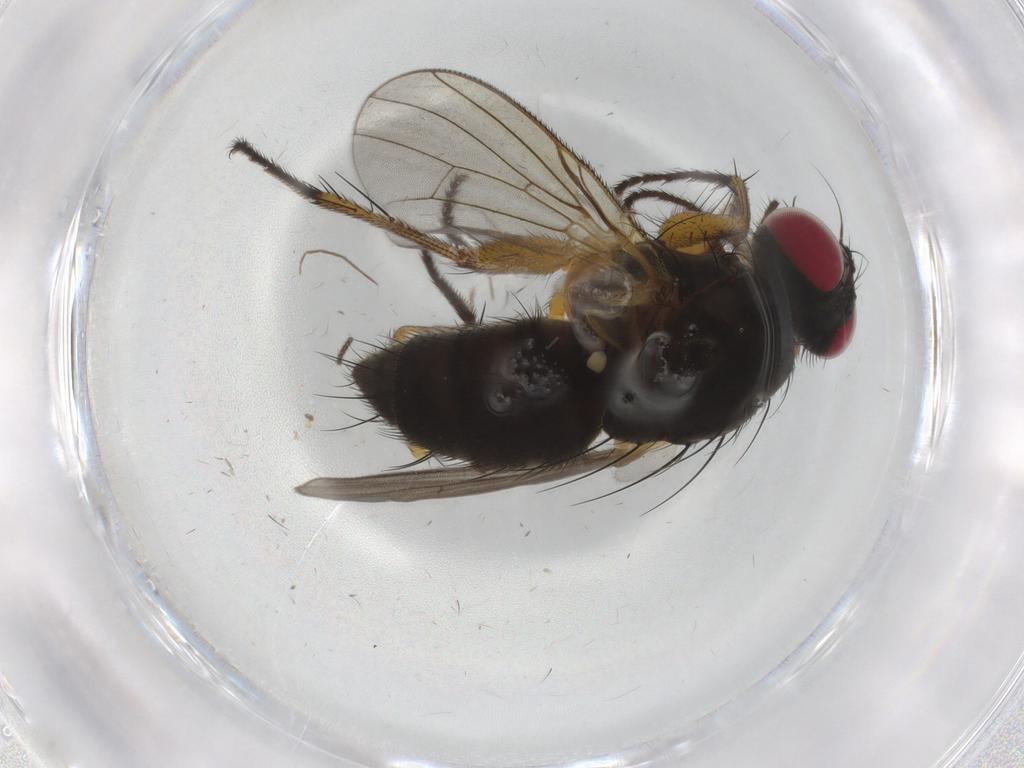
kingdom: Animalia
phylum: Arthropoda
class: Insecta
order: Diptera
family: Muscidae
